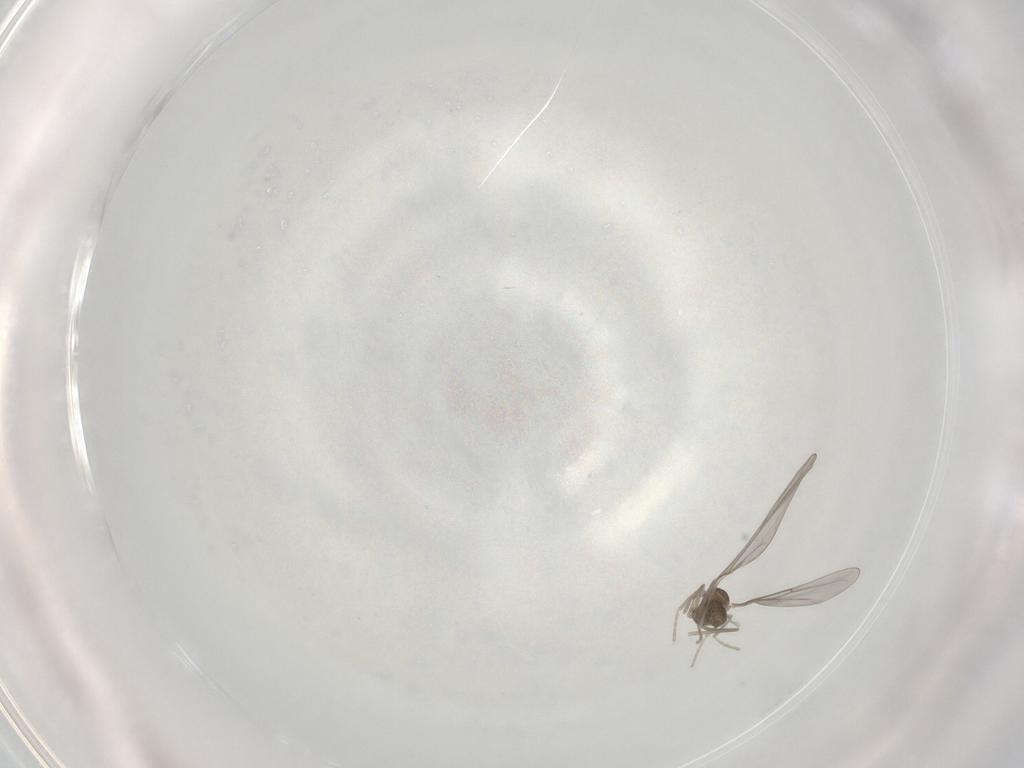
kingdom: Animalia
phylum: Arthropoda
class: Insecta
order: Diptera
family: Cecidomyiidae
